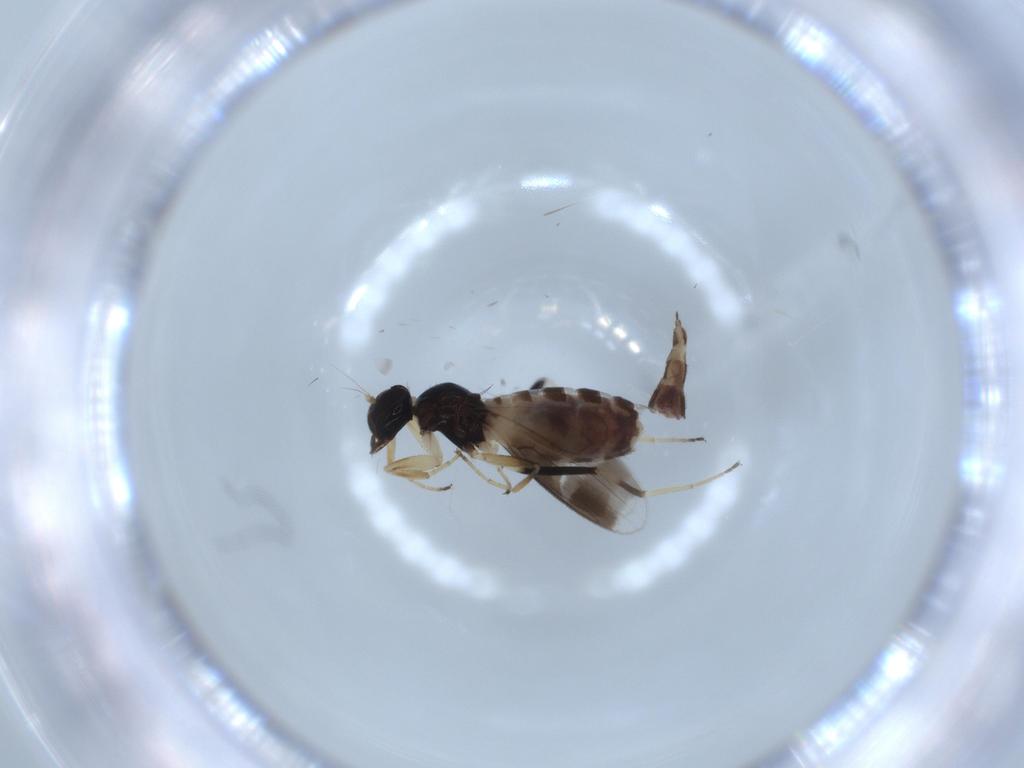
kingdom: Animalia
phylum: Arthropoda
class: Insecta
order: Diptera
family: Hybotidae
